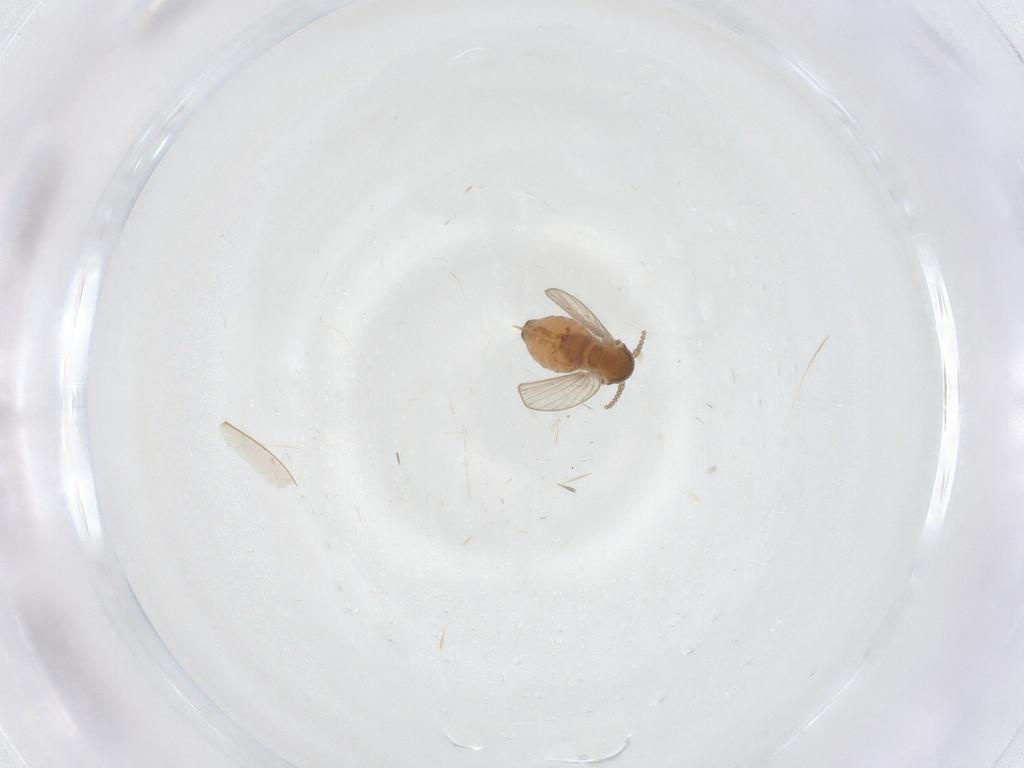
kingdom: Animalia
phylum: Arthropoda
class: Insecta
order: Diptera
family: Psychodidae
